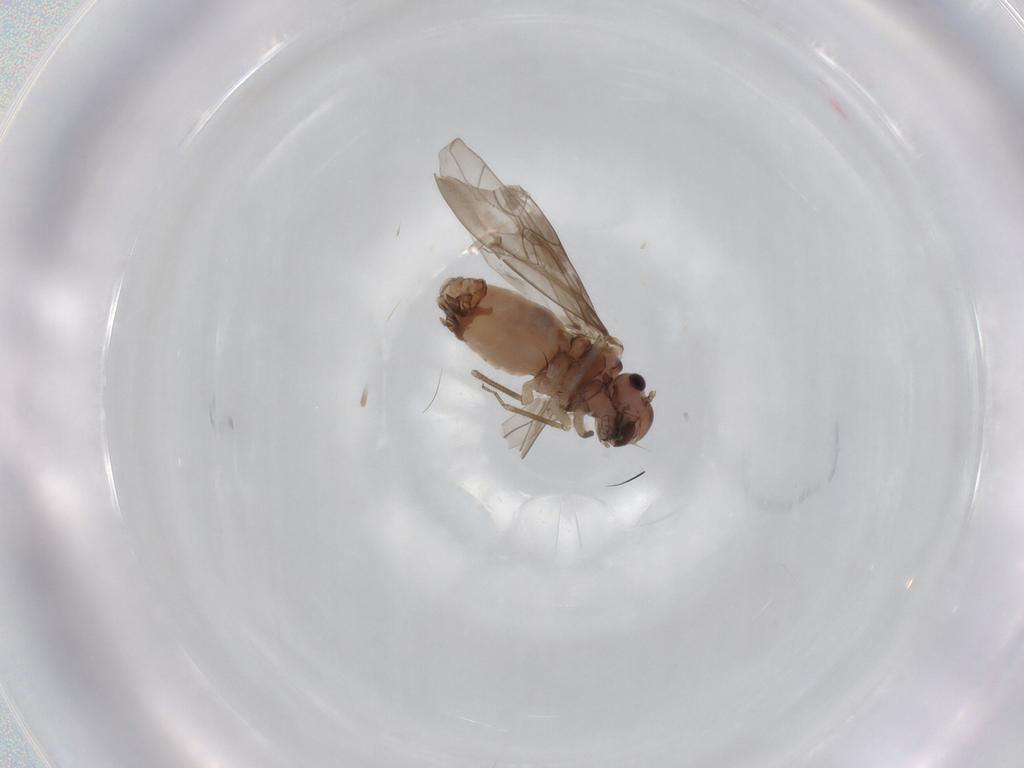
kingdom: Animalia
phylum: Arthropoda
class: Insecta
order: Psocodea
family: Peripsocidae
